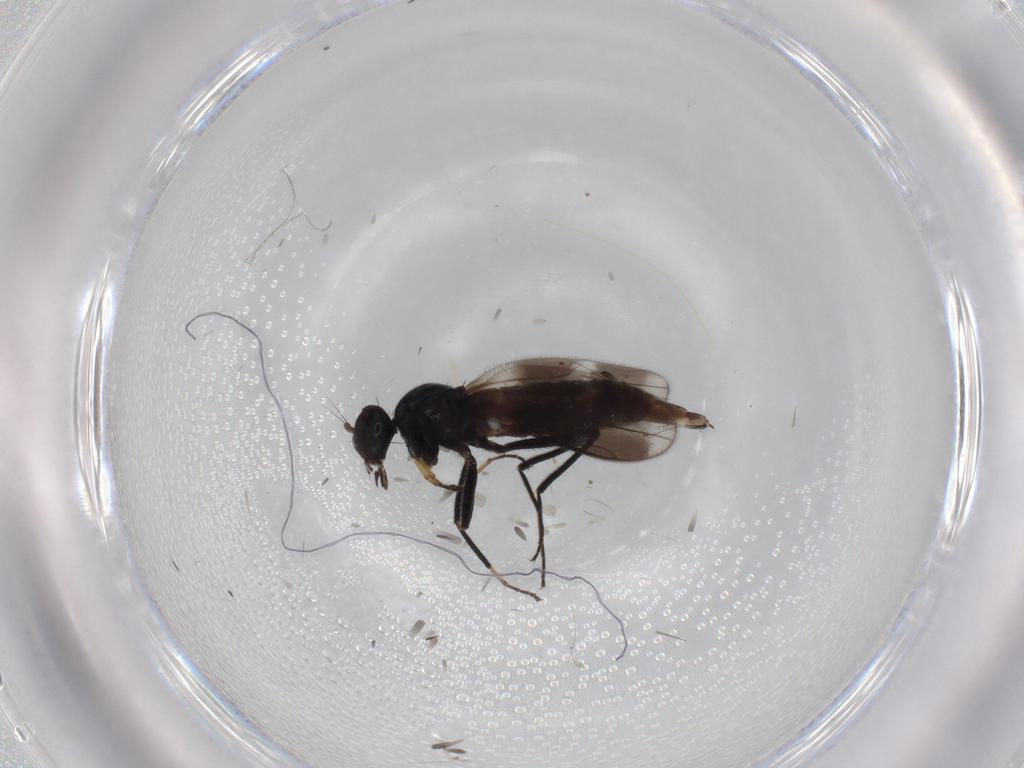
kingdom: Animalia
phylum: Arthropoda
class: Insecta
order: Diptera
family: Hybotidae
